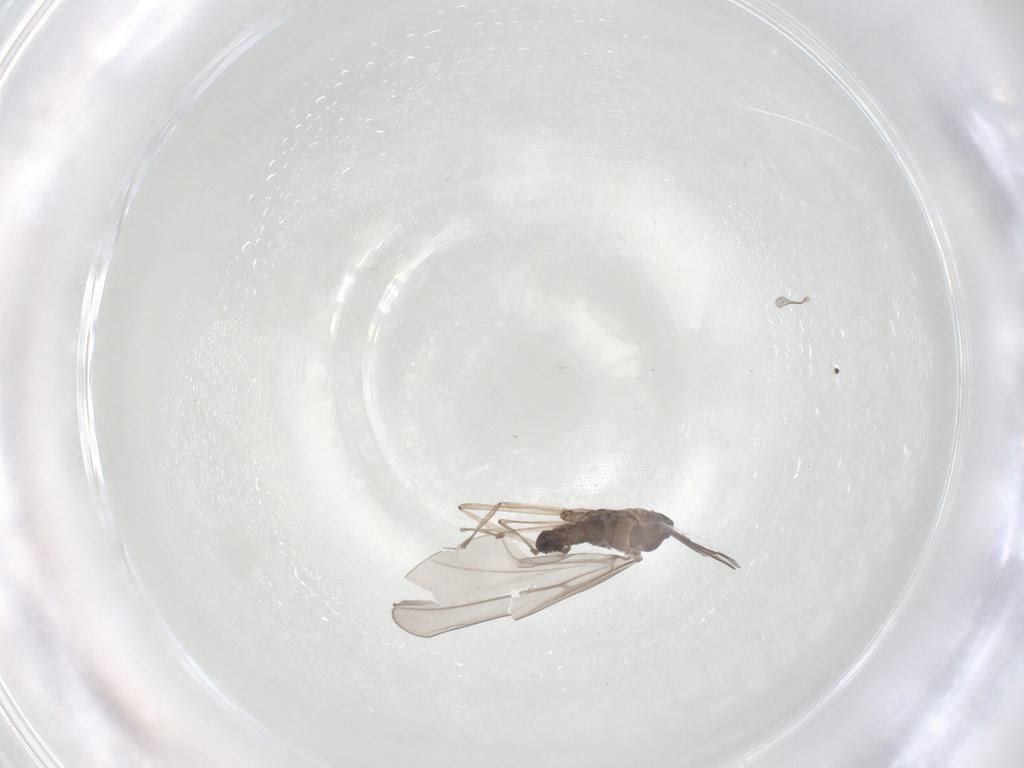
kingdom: Animalia
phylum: Arthropoda
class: Insecta
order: Diptera
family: Cecidomyiidae
